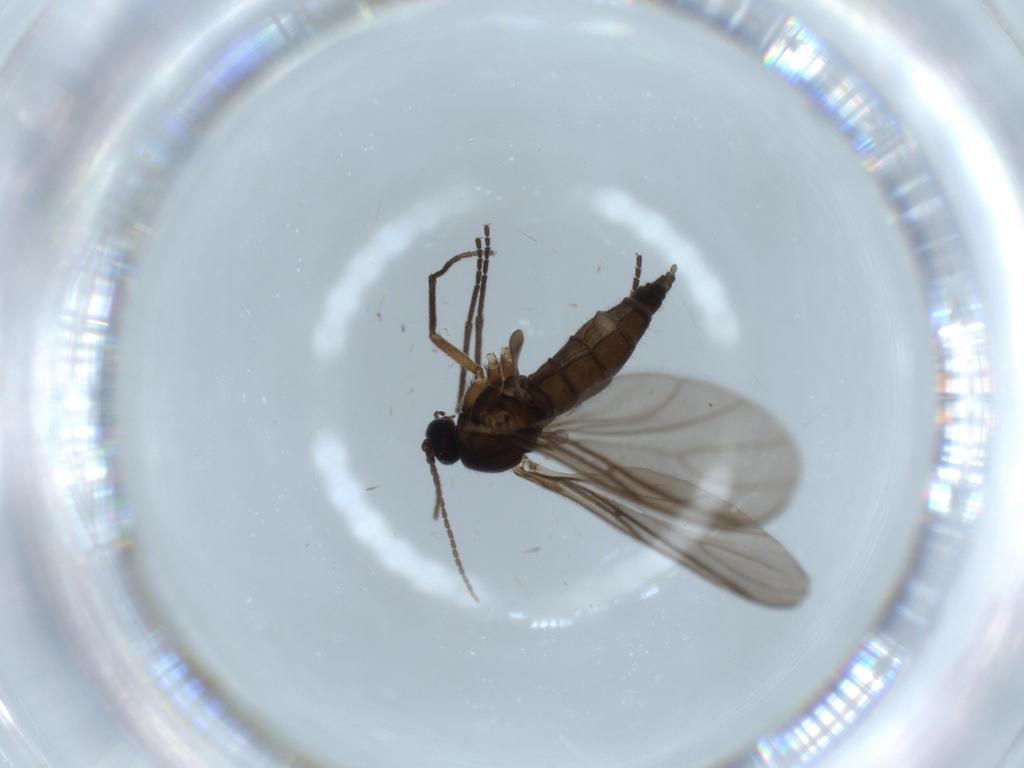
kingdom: Animalia
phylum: Arthropoda
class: Insecta
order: Diptera
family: Sciaridae
